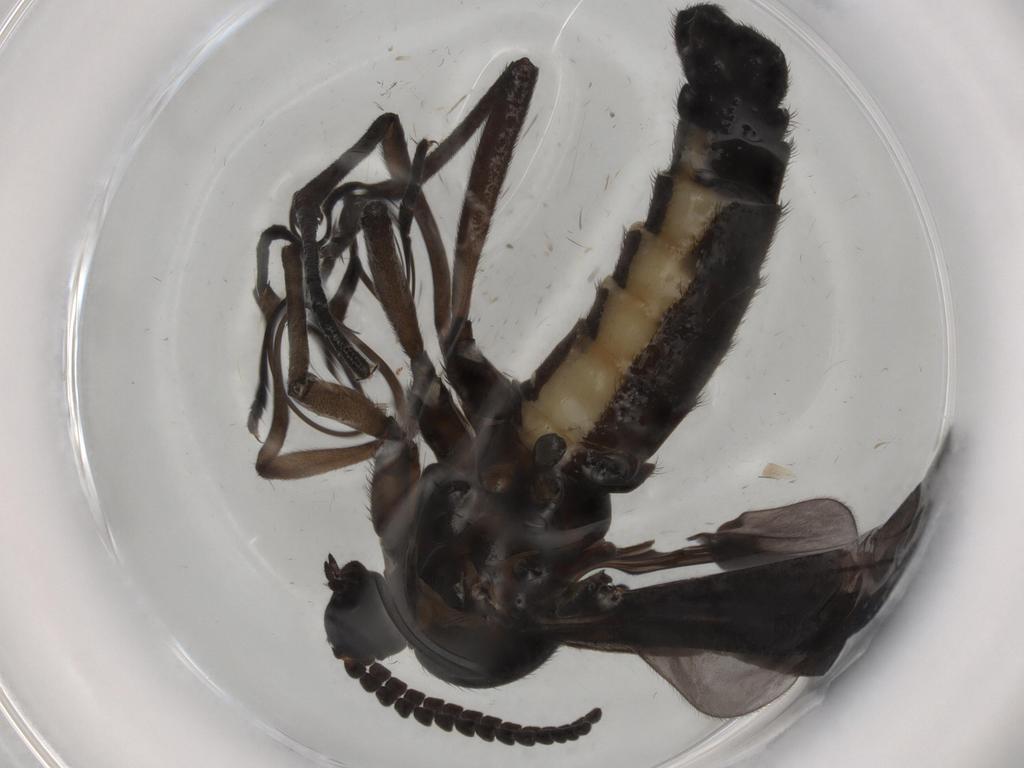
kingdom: Animalia
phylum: Arthropoda
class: Insecta
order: Diptera
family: Sciaridae
